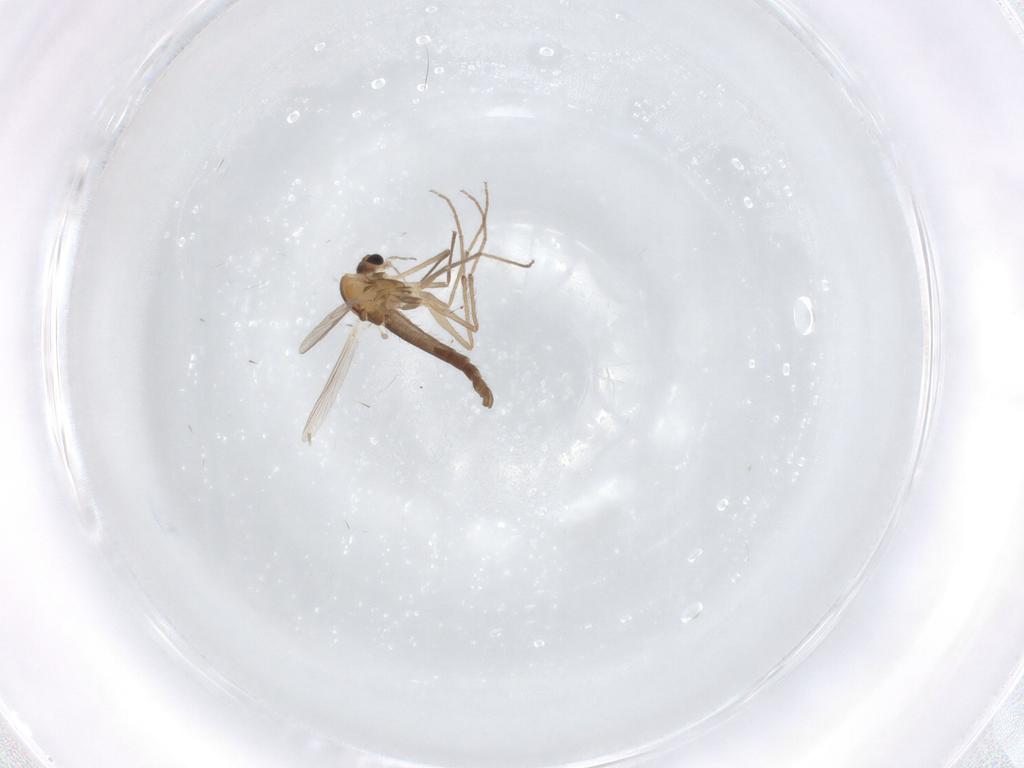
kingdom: Animalia
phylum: Arthropoda
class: Insecta
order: Diptera
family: Chironomidae
